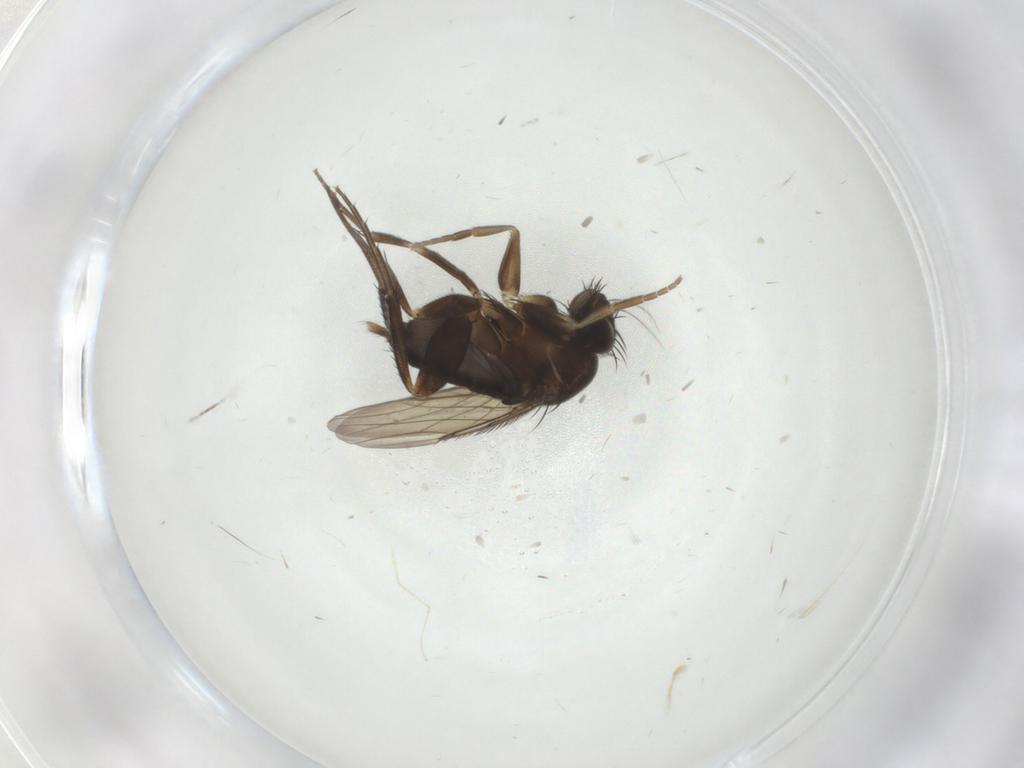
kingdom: Animalia
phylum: Arthropoda
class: Insecta
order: Diptera
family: Phoridae
